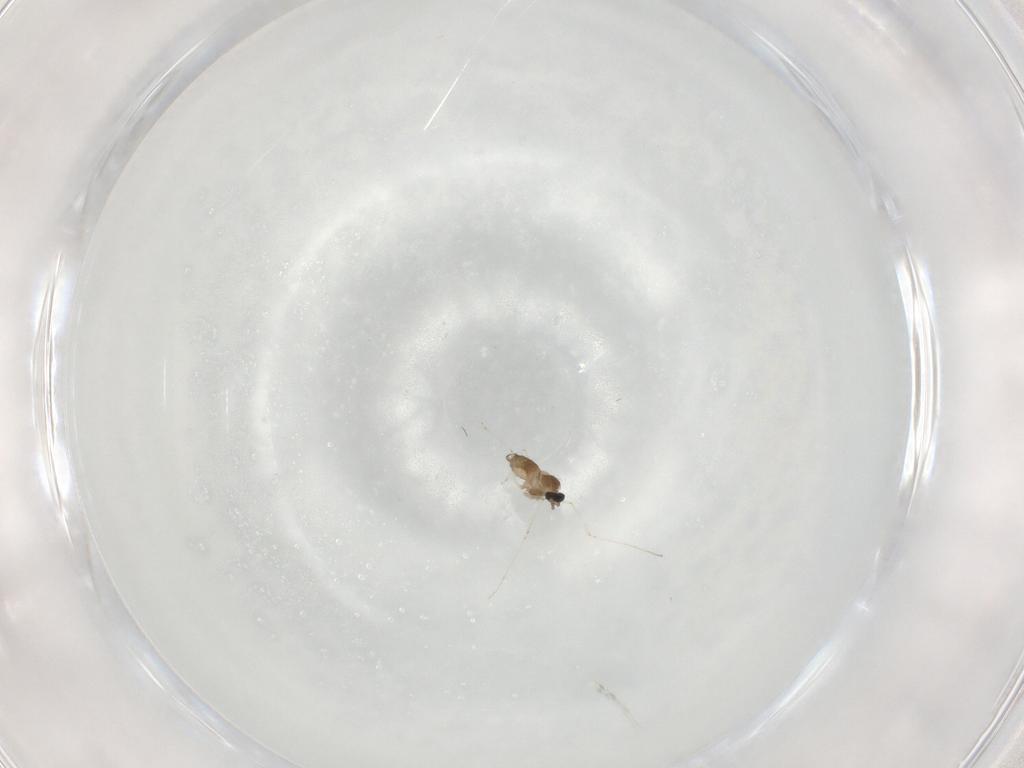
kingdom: Animalia
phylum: Arthropoda
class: Insecta
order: Diptera
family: Cecidomyiidae
